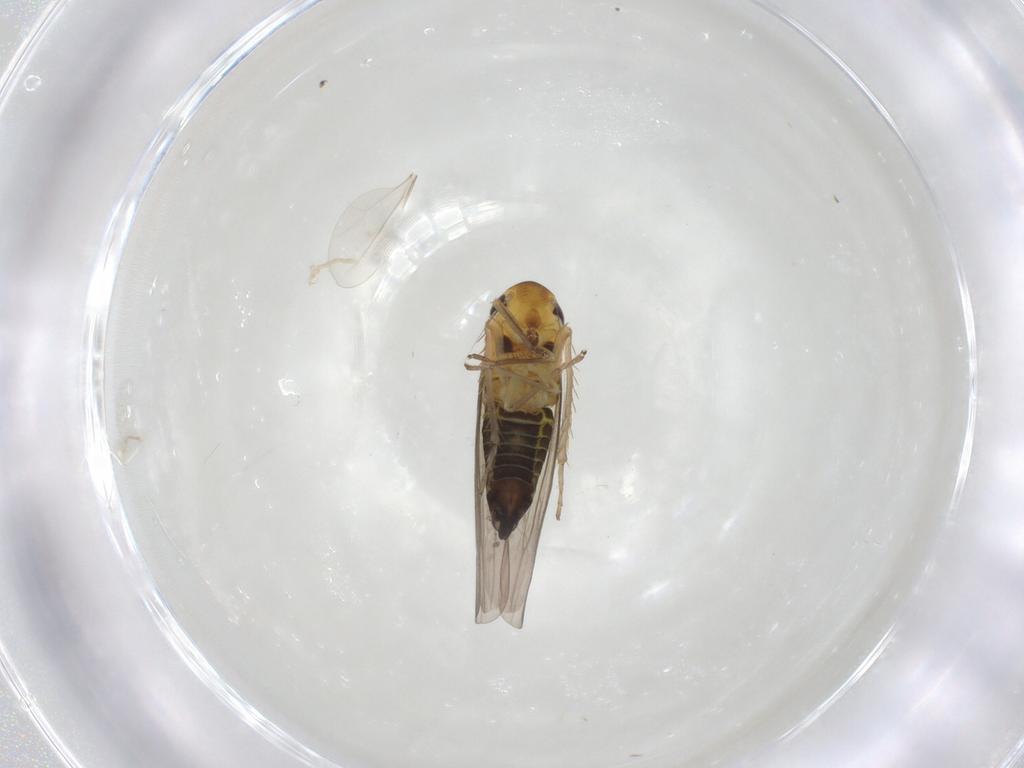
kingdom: Animalia
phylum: Arthropoda
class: Insecta
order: Hemiptera
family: Cicadellidae
